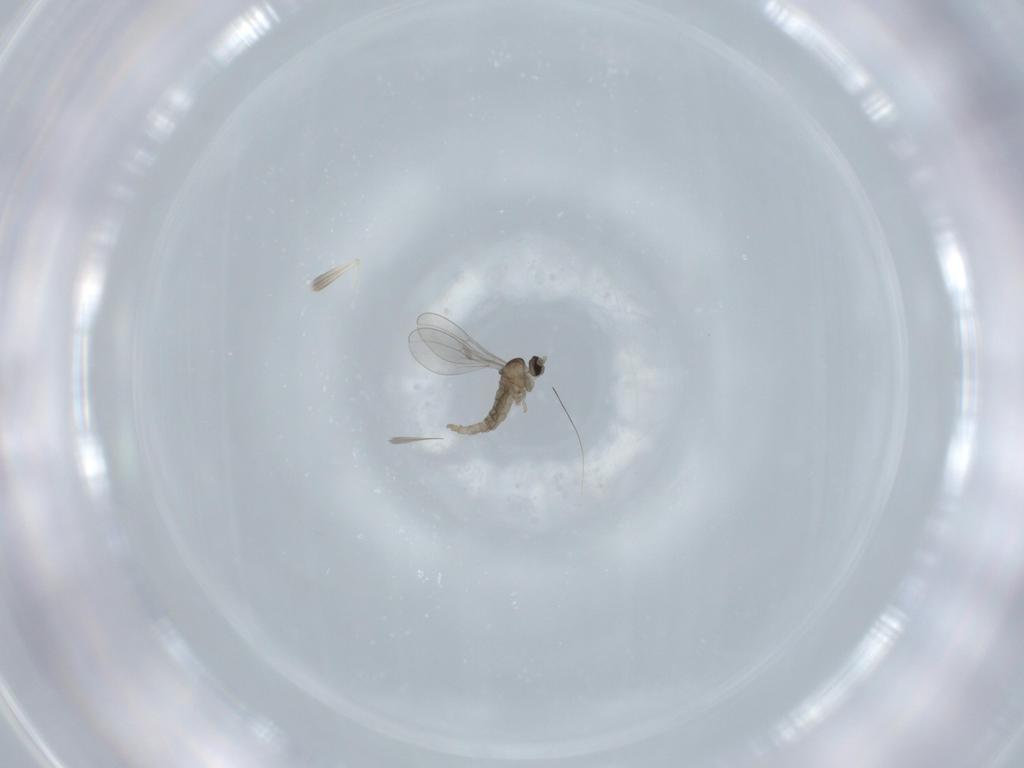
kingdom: Animalia
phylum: Arthropoda
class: Insecta
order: Diptera
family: Cecidomyiidae
